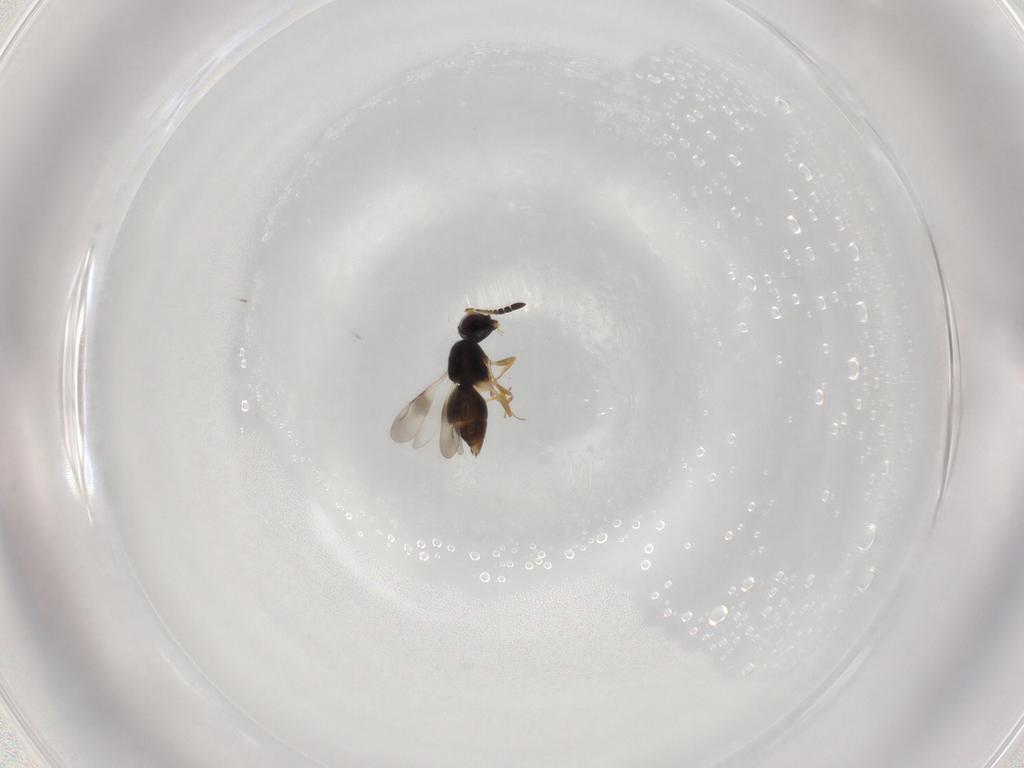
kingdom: Animalia
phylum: Arthropoda
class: Insecta
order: Hymenoptera
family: Ceraphronidae
